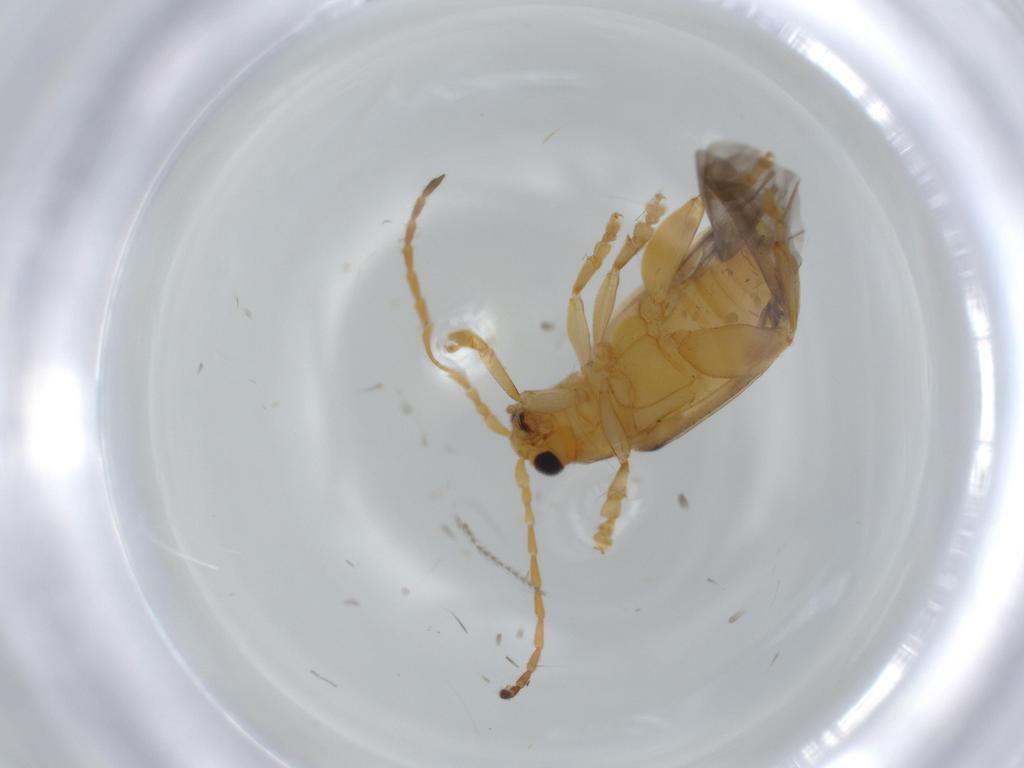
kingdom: Animalia
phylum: Arthropoda
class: Insecta
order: Coleoptera
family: Chrysomelidae
